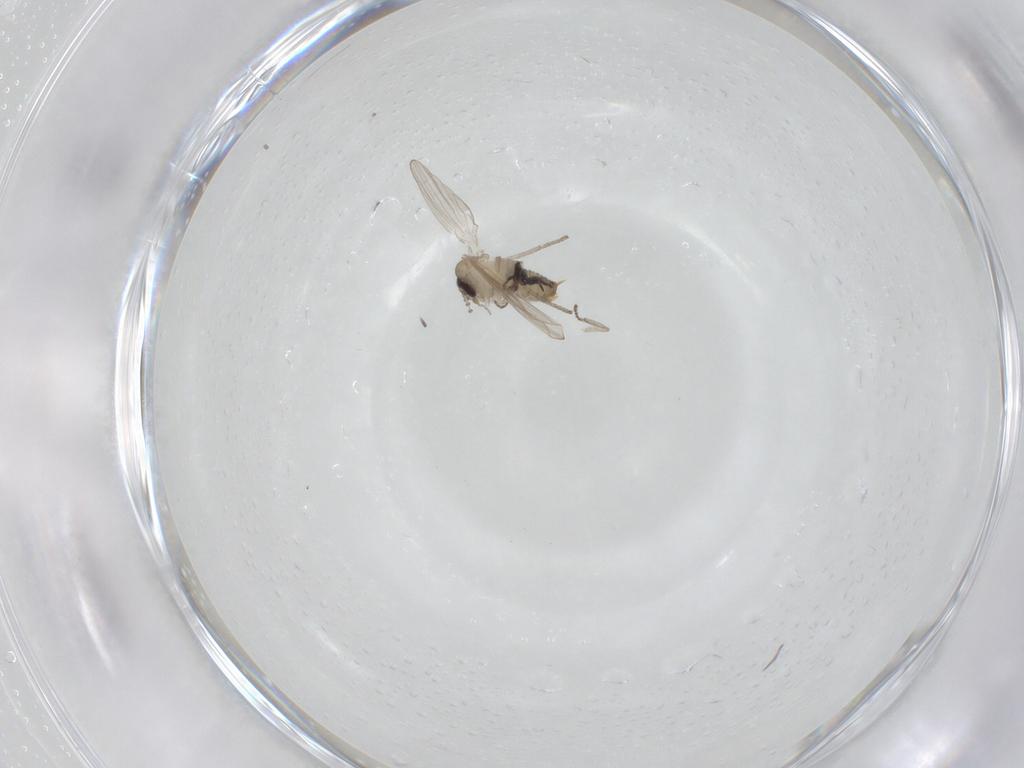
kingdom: Animalia
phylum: Arthropoda
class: Insecta
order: Diptera
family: Psychodidae
